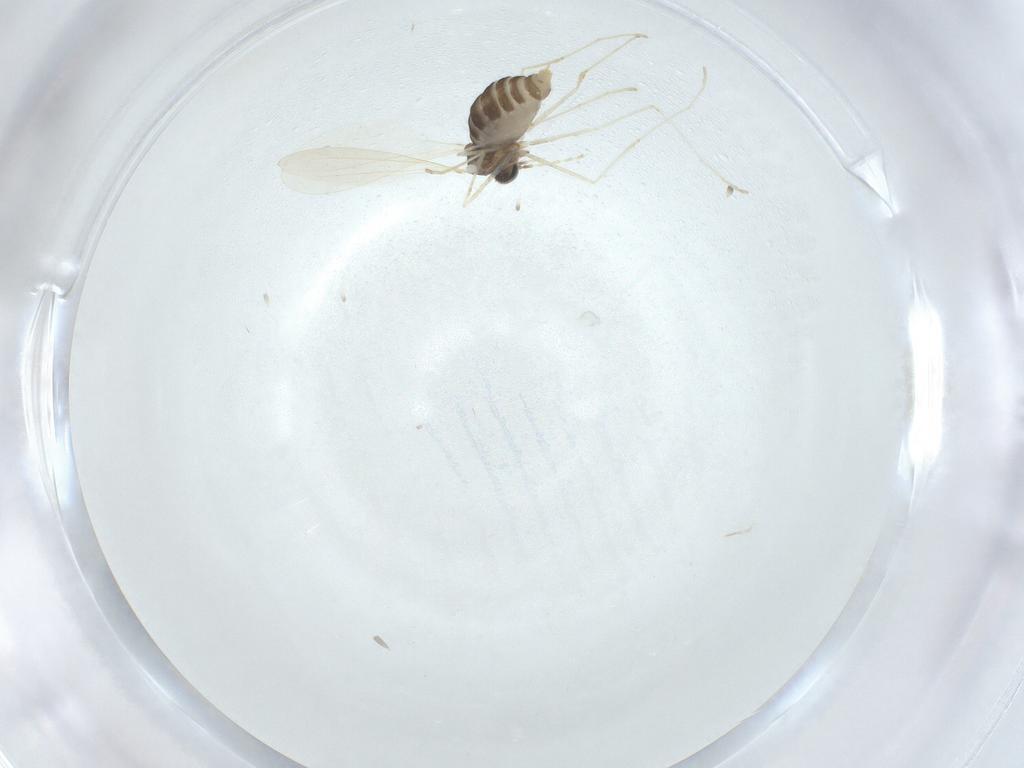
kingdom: Animalia
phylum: Arthropoda
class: Insecta
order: Diptera
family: Cecidomyiidae
